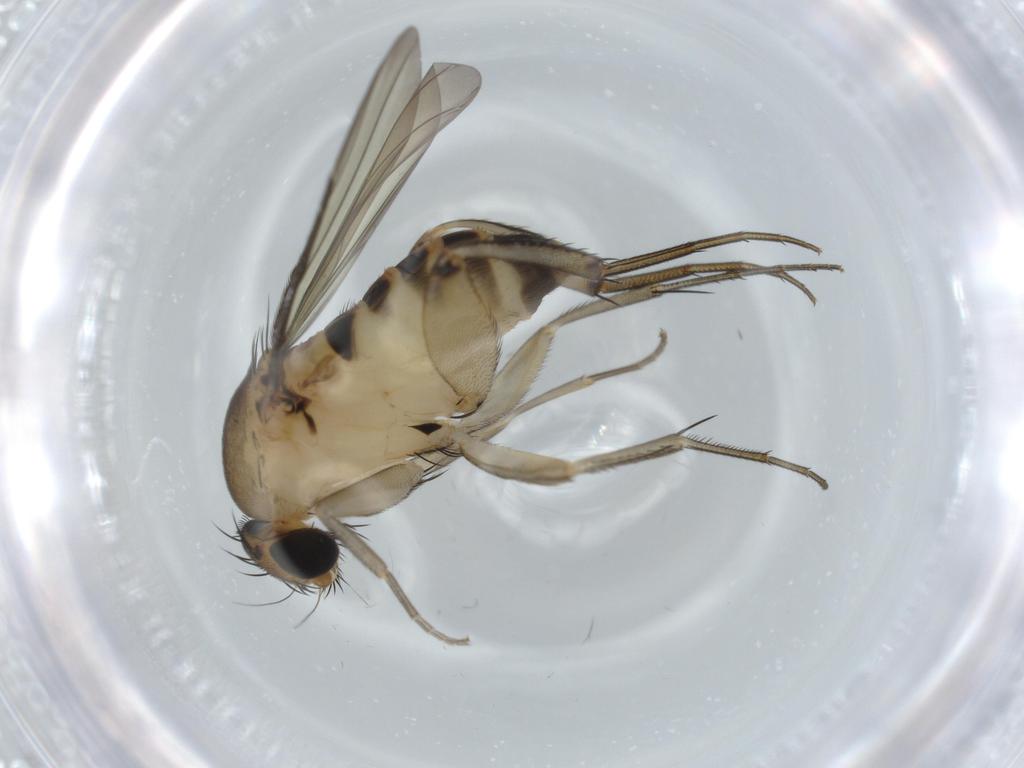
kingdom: Animalia
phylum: Arthropoda
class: Insecta
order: Diptera
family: Phoridae
